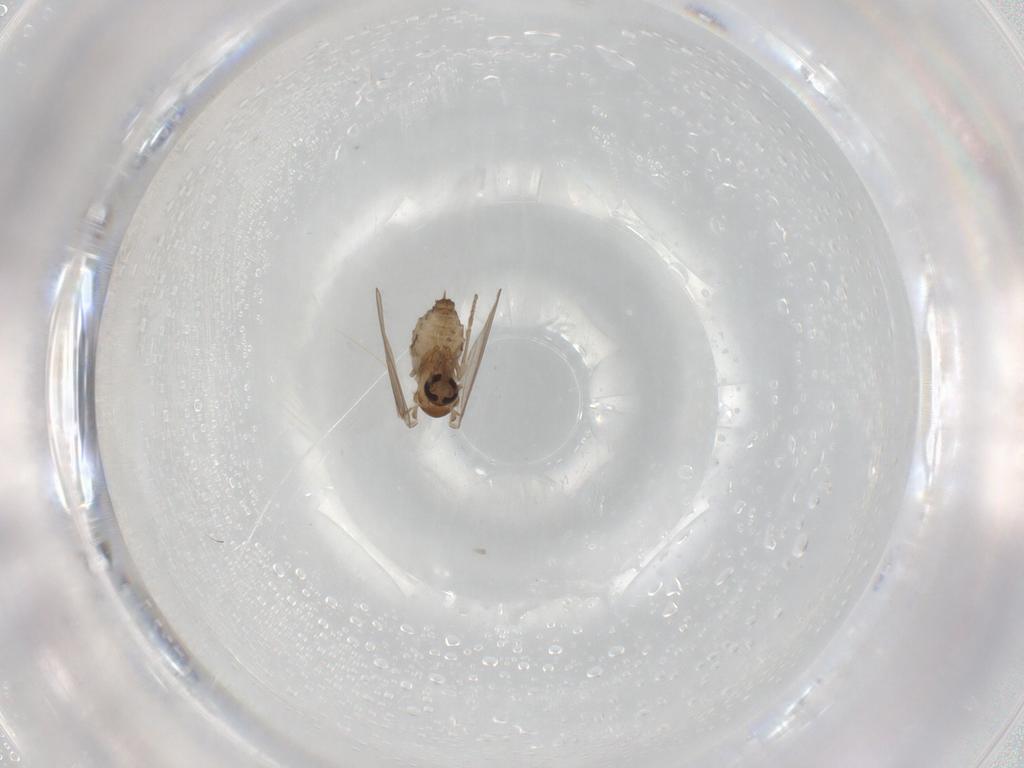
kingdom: Animalia
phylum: Arthropoda
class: Insecta
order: Diptera
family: Psychodidae
